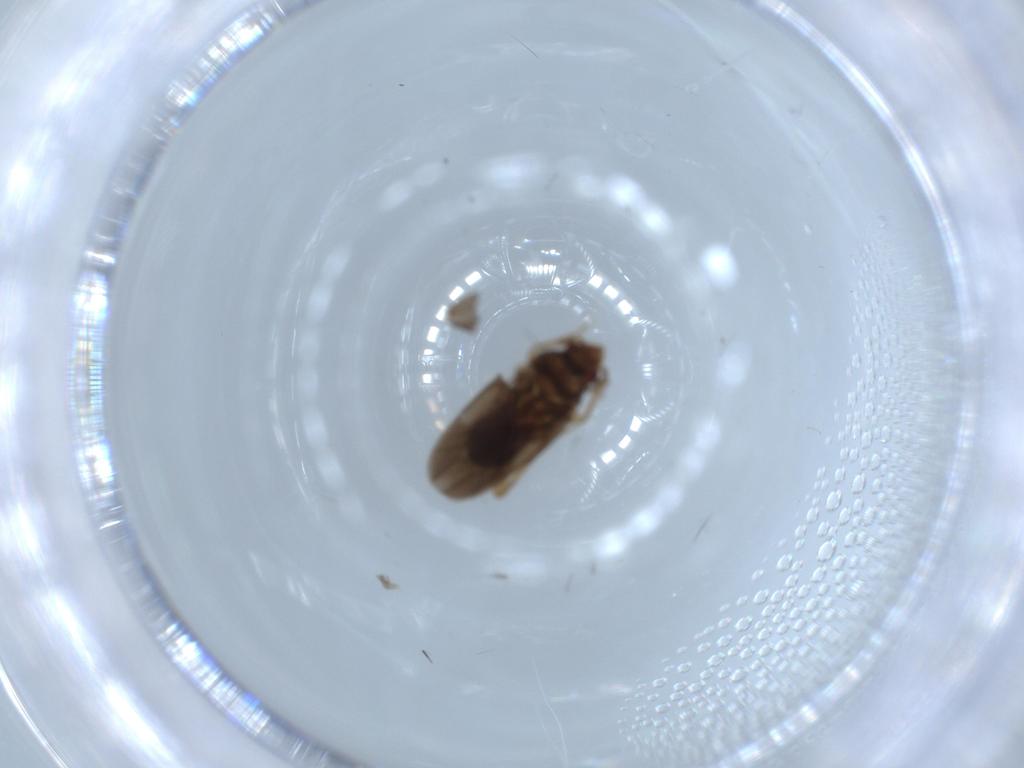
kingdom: Animalia
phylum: Arthropoda
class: Insecta
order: Hemiptera
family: Ceratocombidae
